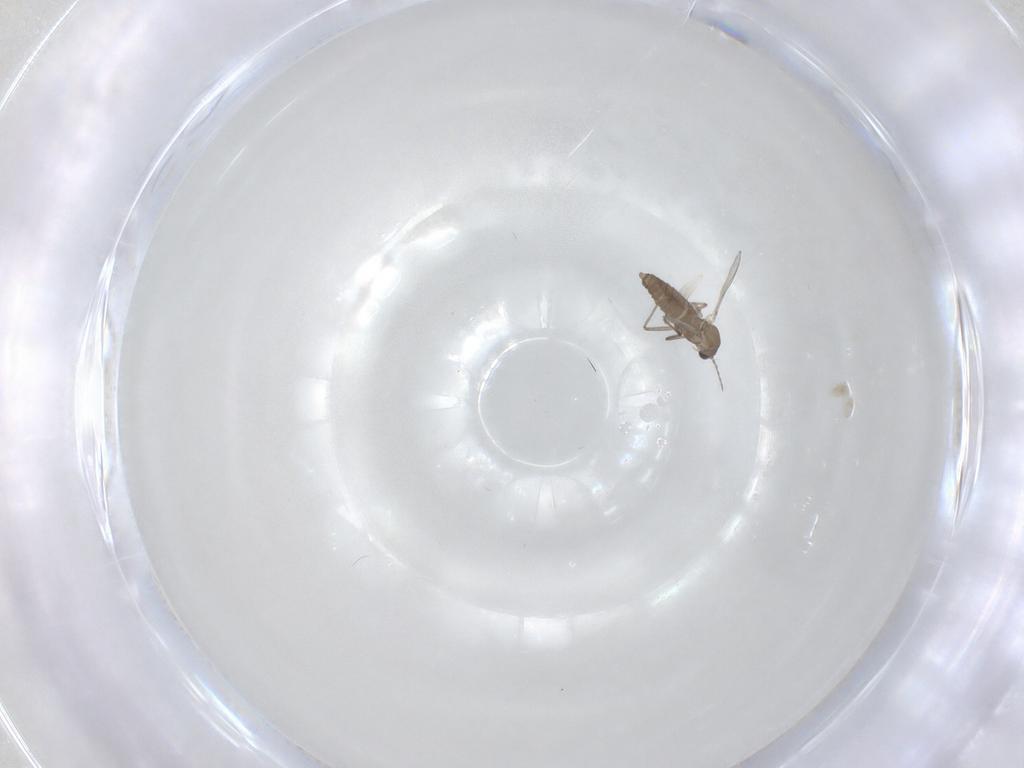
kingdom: Animalia
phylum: Arthropoda
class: Insecta
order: Diptera
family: Chironomidae
